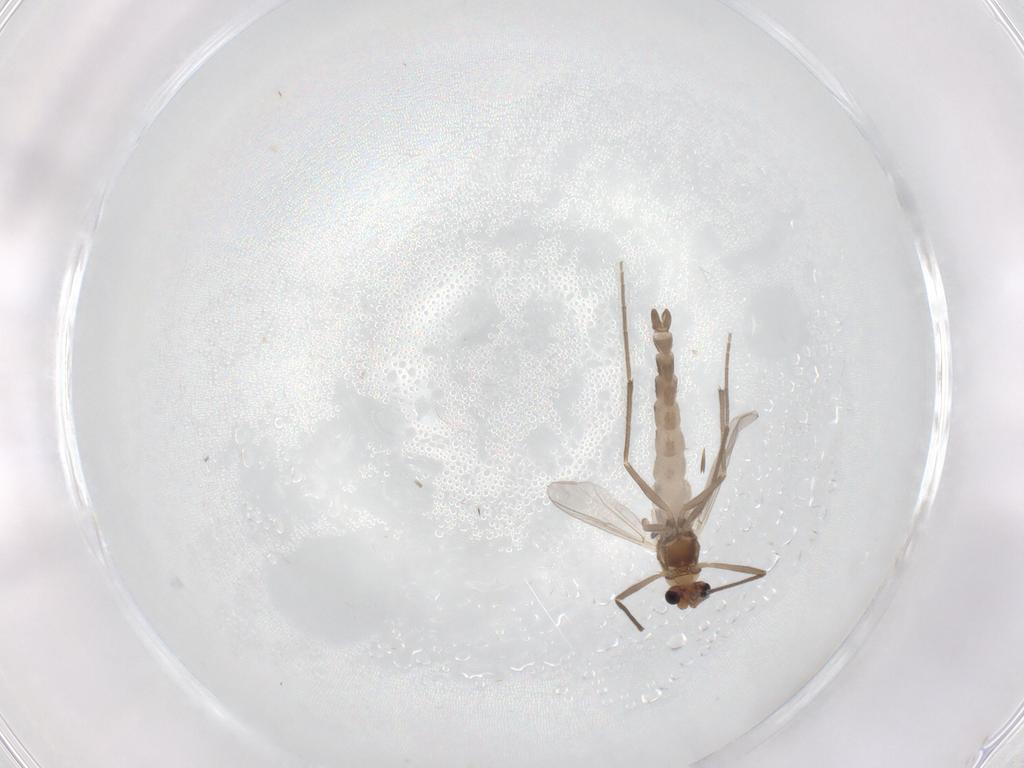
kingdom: Animalia
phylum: Arthropoda
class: Insecta
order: Diptera
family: Chironomidae
